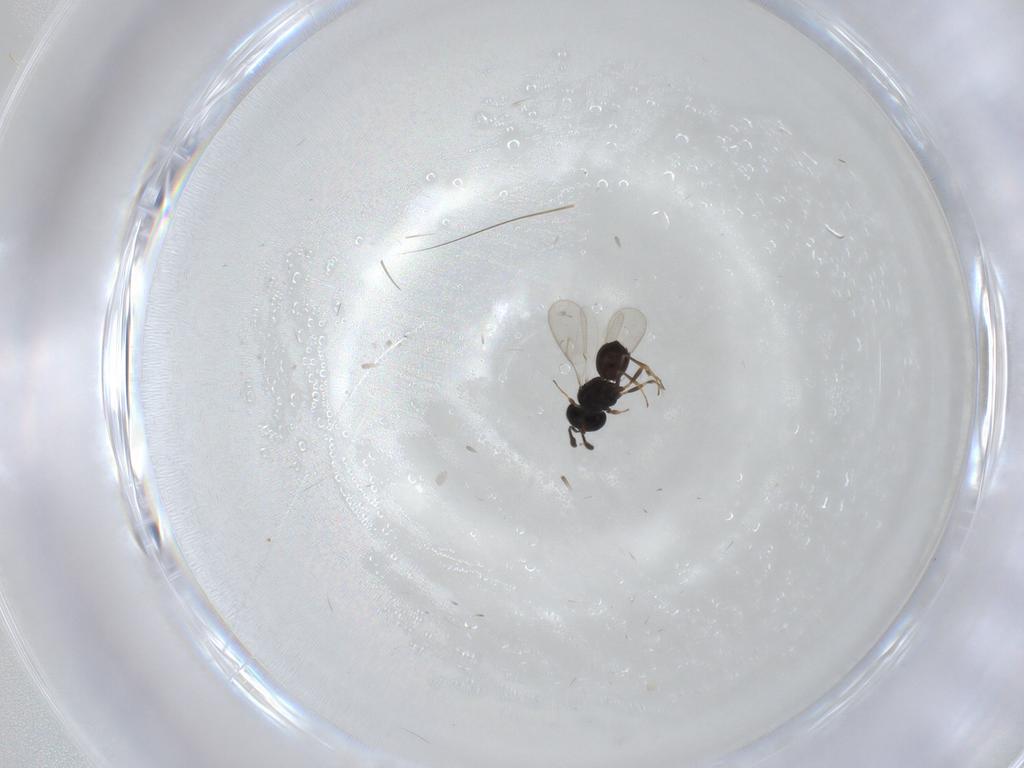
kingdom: Animalia
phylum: Arthropoda
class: Insecta
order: Hymenoptera
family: Scelionidae
